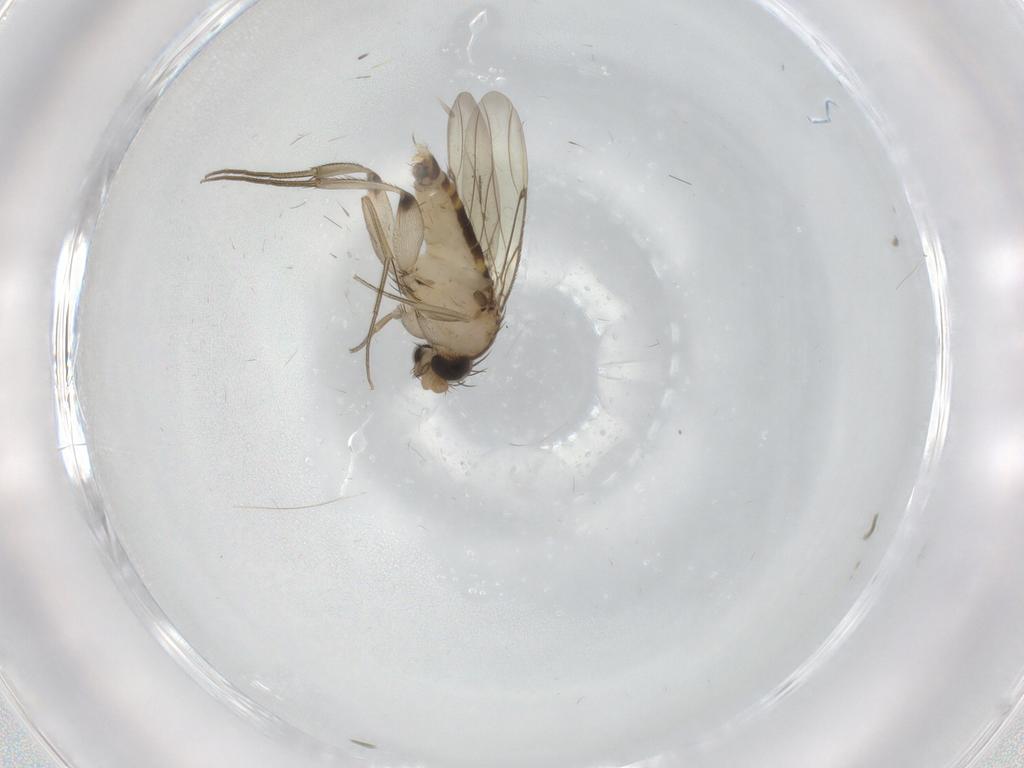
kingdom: Animalia
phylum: Arthropoda
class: Insecta
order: Diptera
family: Phoridae
